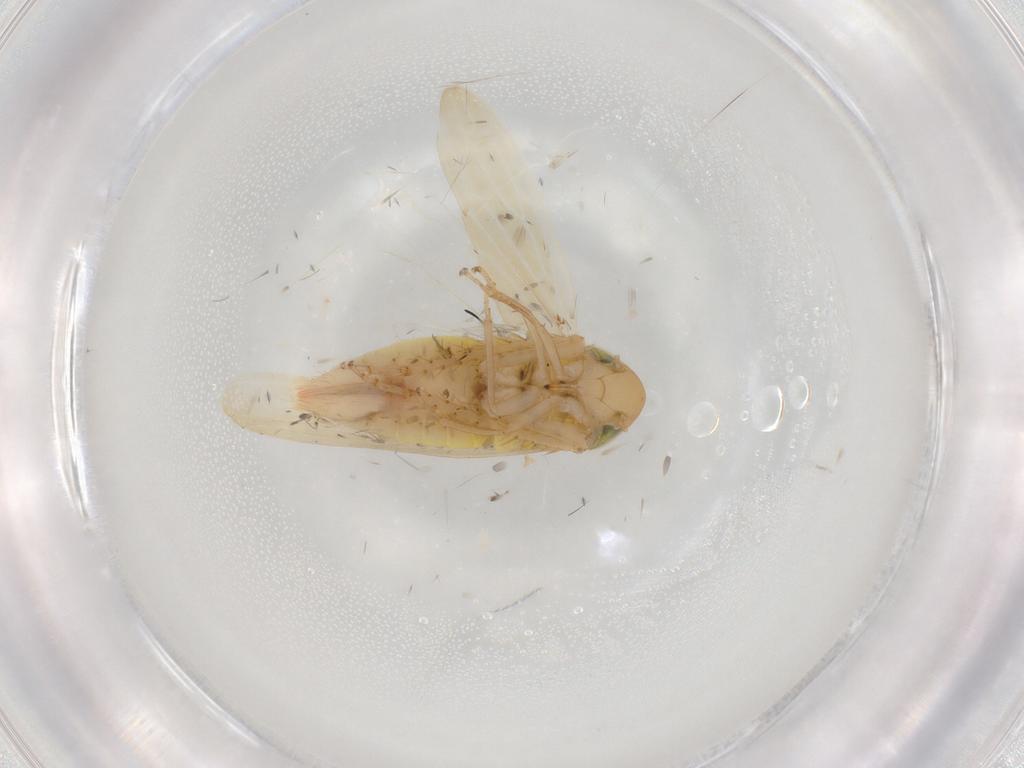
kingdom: Animalia
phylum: Arthropoda
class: Insecta
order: Hemiptera
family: Cicadellidae
